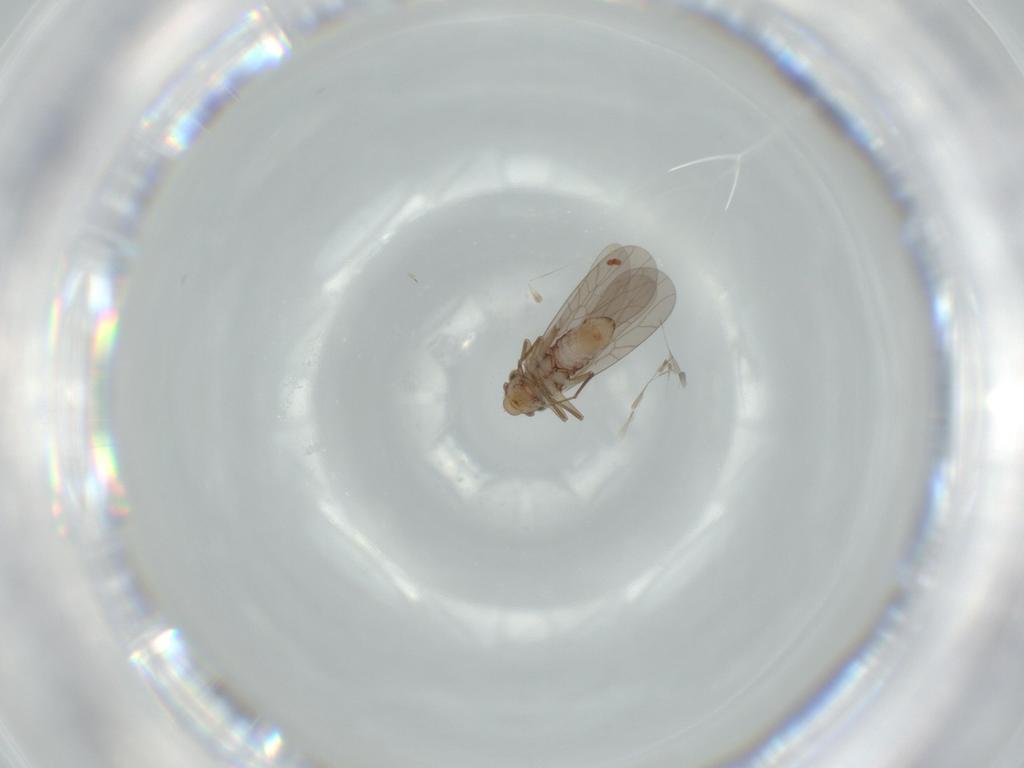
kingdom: Animalia
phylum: Arthropoda
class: Insecta
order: Psocodea
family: Lepidopsocidae
